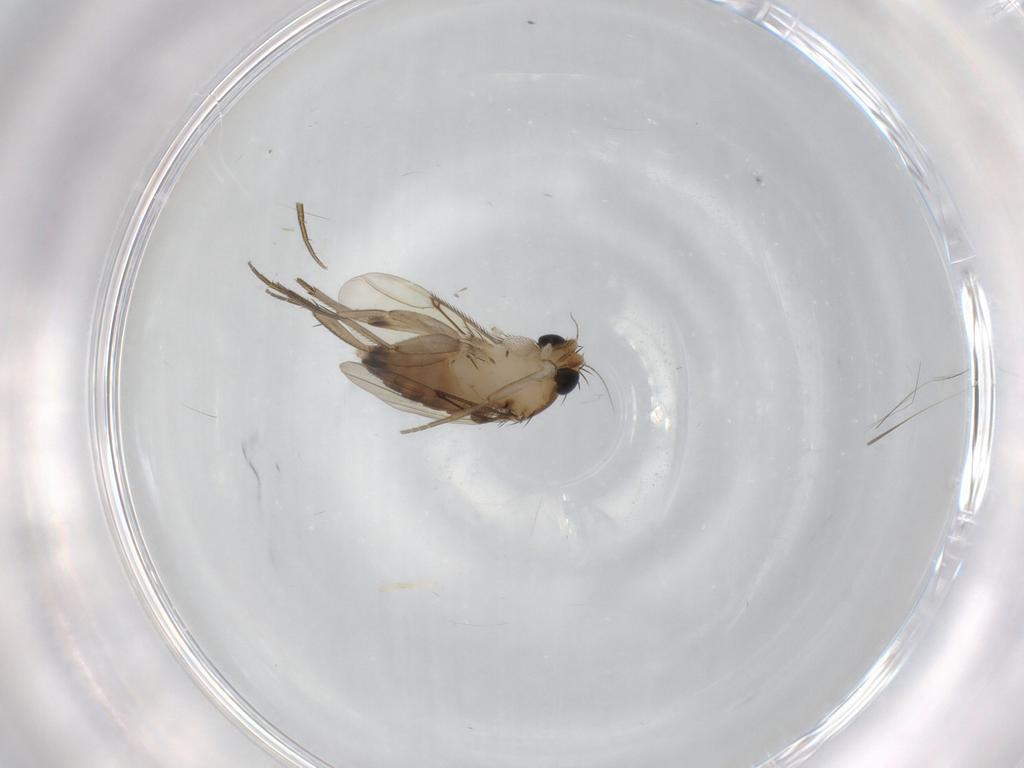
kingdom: Animalia
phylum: Arthropoda
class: Insecta
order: Diptera
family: Phoridae
